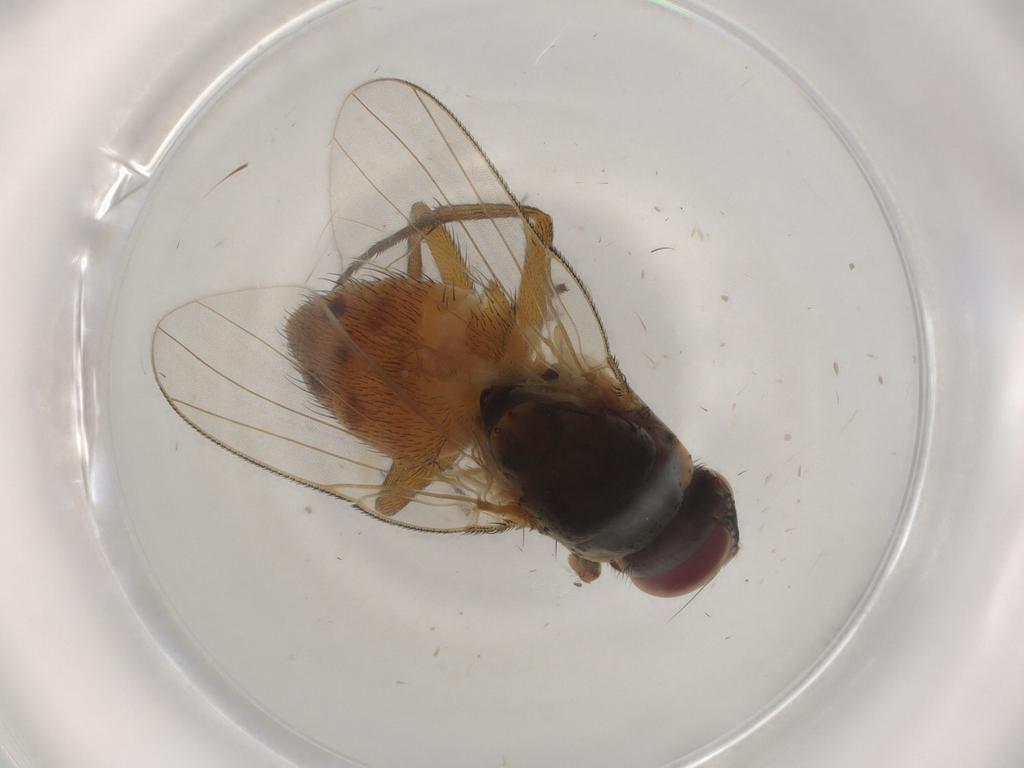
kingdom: Animalia
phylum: Arthropoda
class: Insecta
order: Diptera
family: Muscidae
